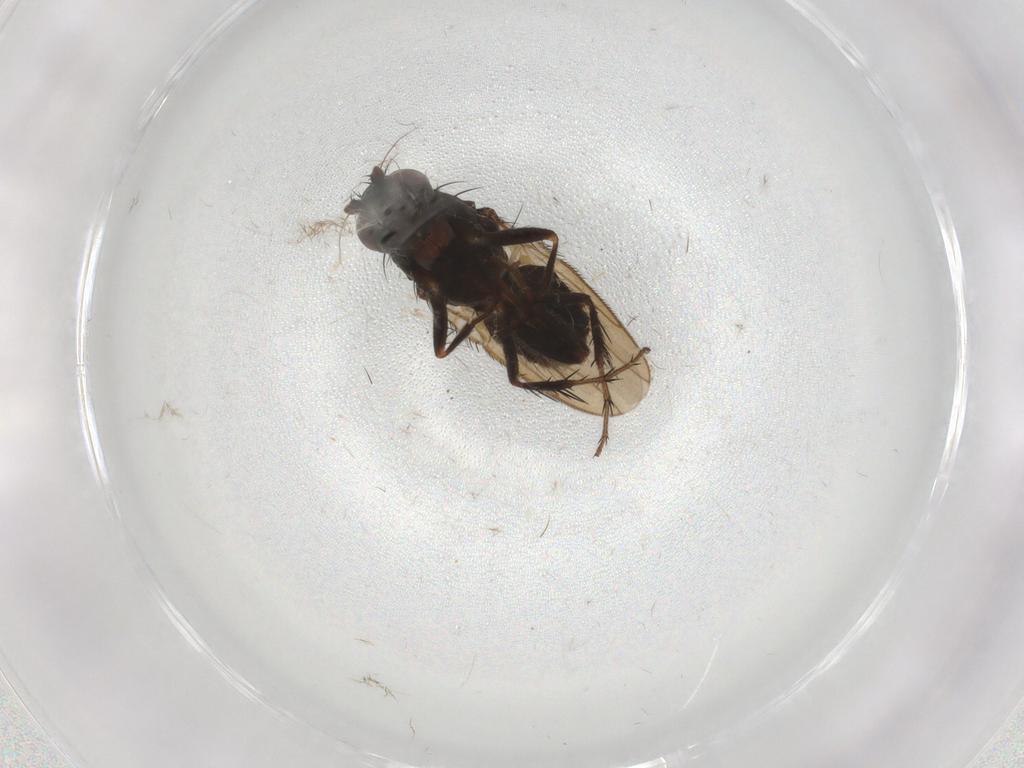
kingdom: Animalia
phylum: Arthropoda
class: Insecta
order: Diptera
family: Sphaeroceridae
